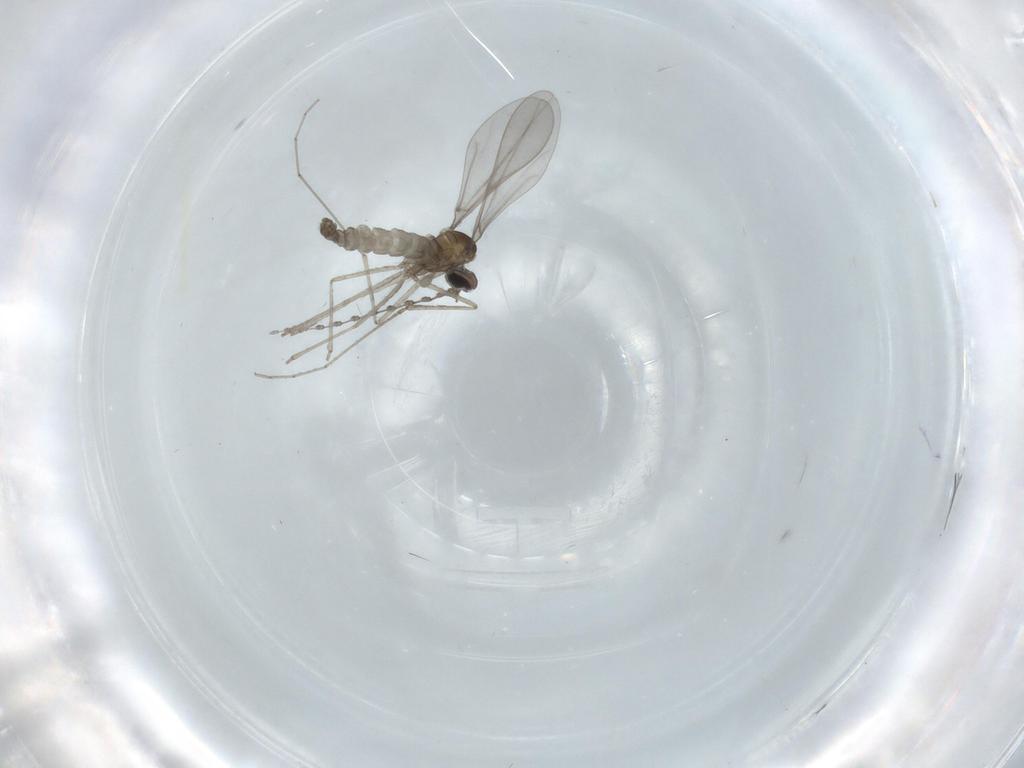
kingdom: Animalia
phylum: Arthropoda
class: Insecta
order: Diptera
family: Cecidomyiidae
